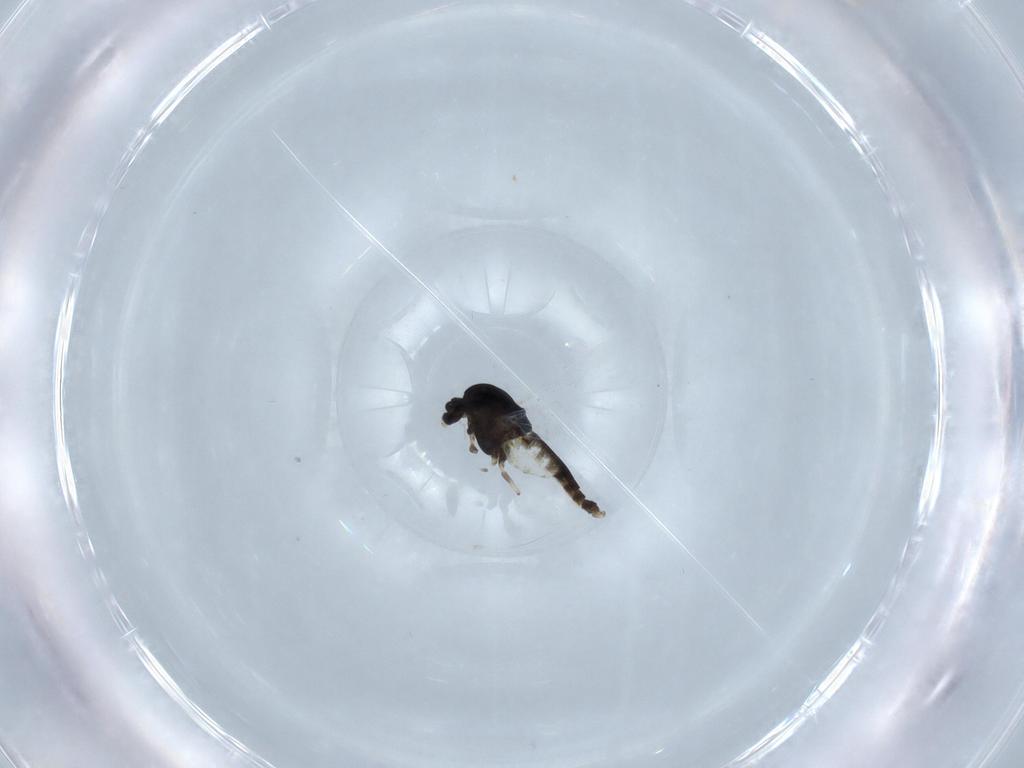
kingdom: Animalia
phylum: Arthropoda
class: Insecta
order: Diptera
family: Chironomidae
